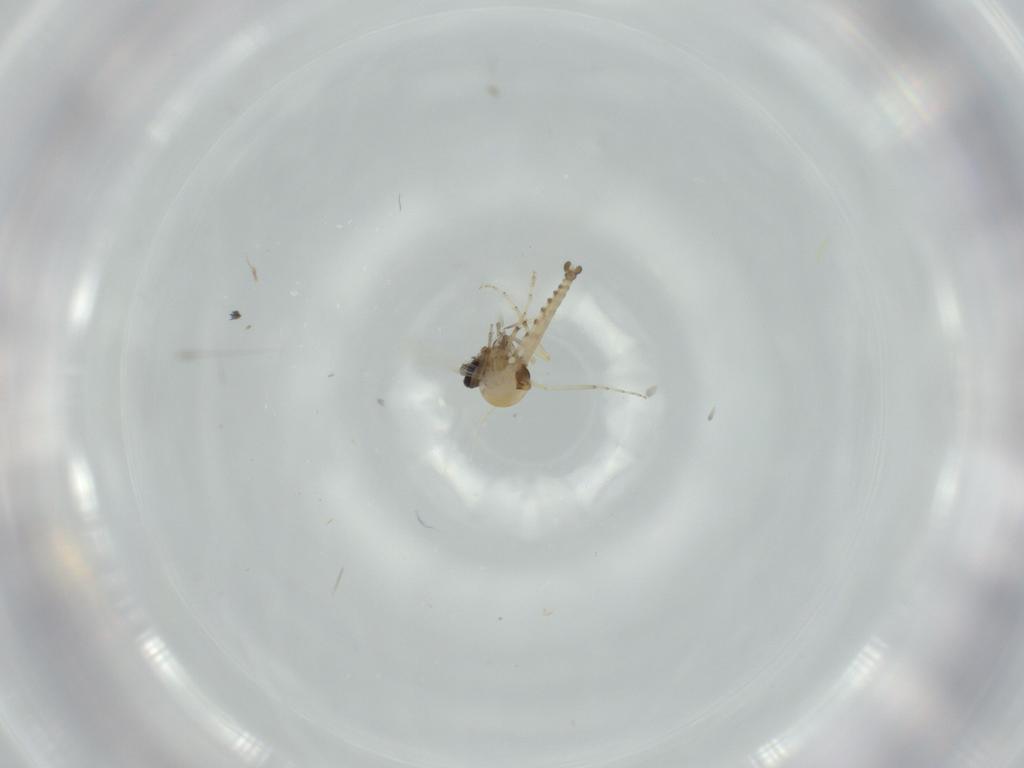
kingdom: Animalia
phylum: Arthropoda
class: Insecta
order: Diptera
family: Ceratopogonidae
